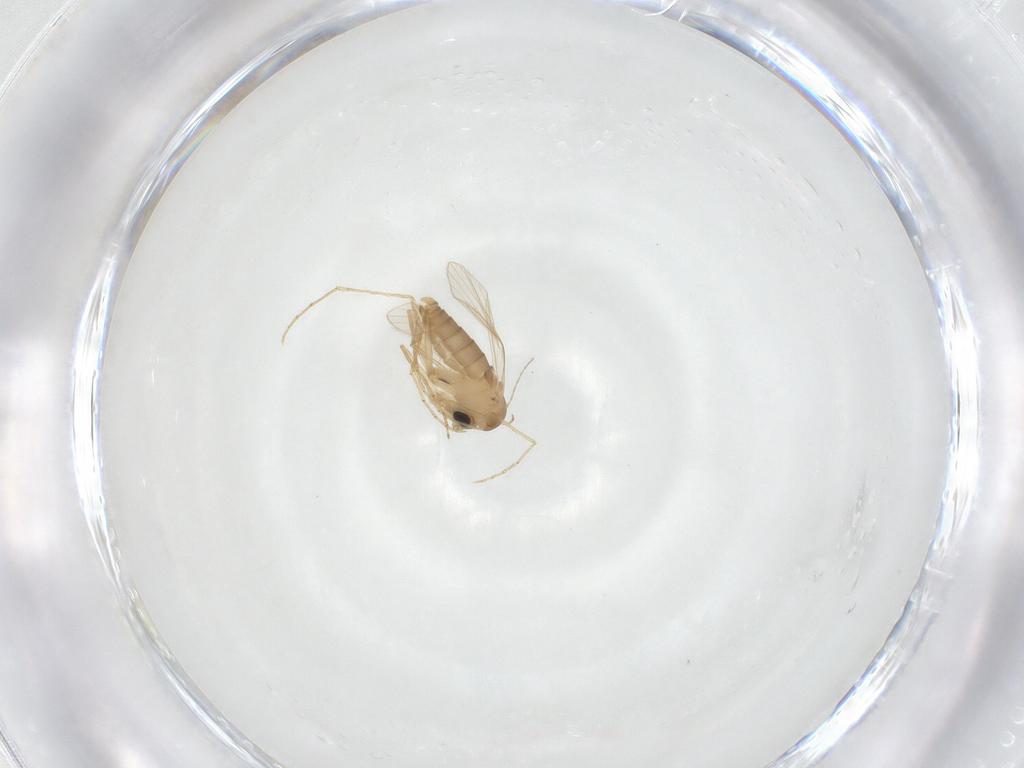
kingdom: Animalia
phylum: Arthropoda
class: Insecta
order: Diptera
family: Psychodidae
